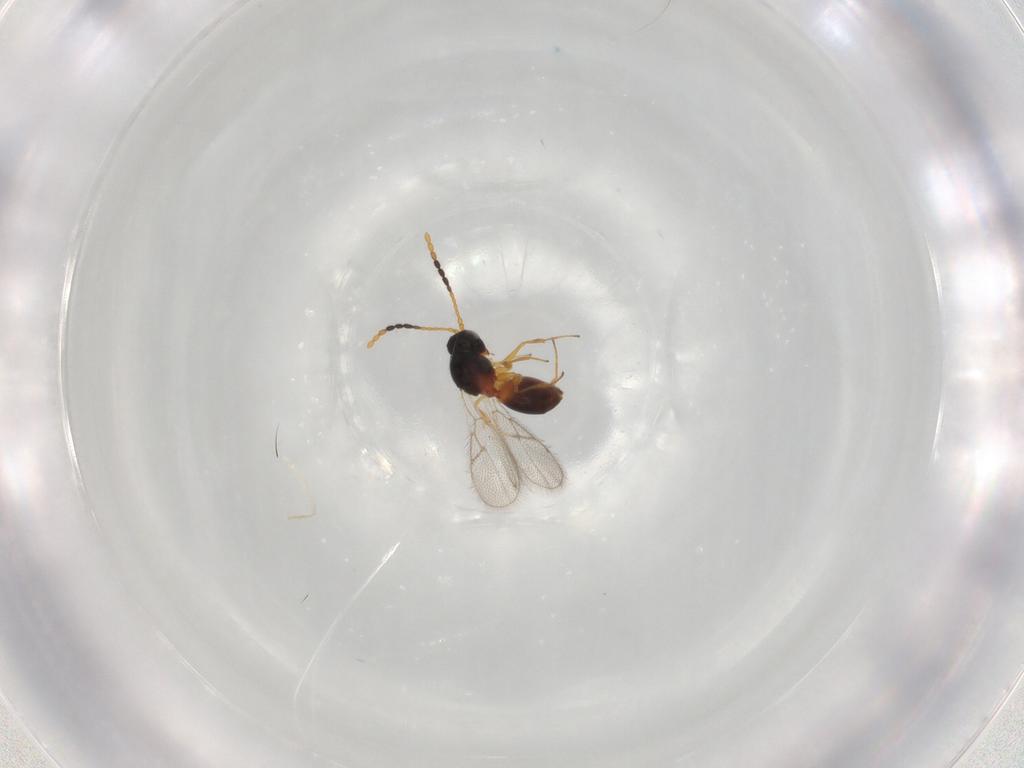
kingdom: Animalia
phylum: Arthropoda
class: Insecta
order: Hymenoptera
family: Figitidae
